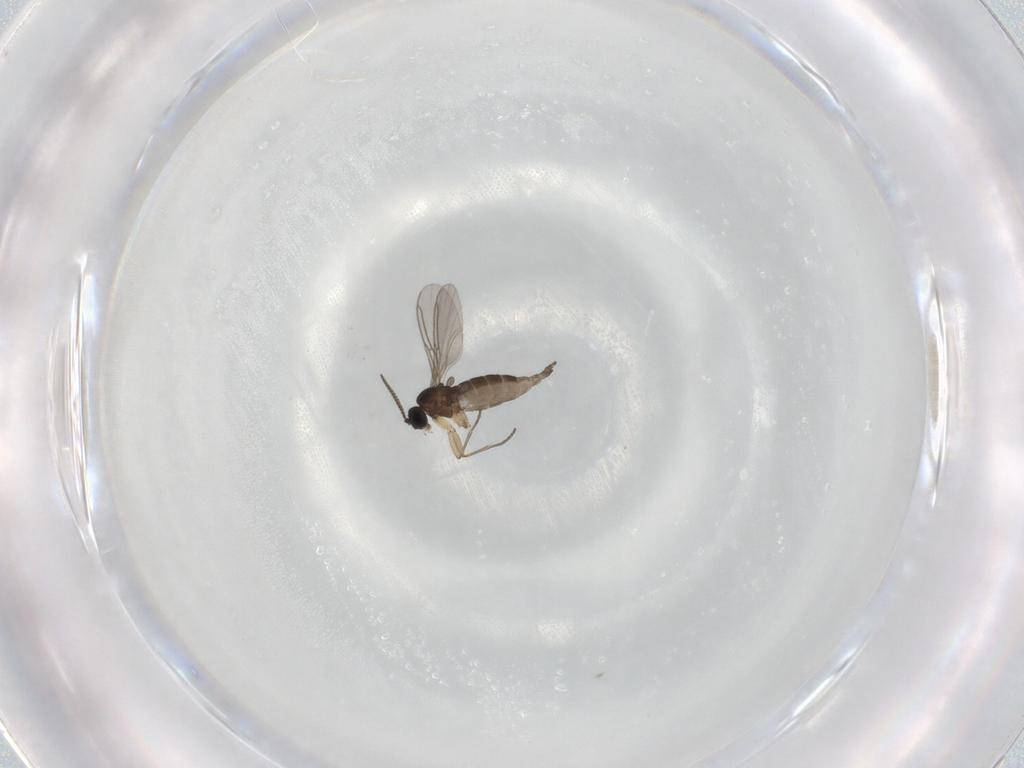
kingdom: Animalia
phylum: Arthropoda
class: Insecta
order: Diptera
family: Sciaridae
